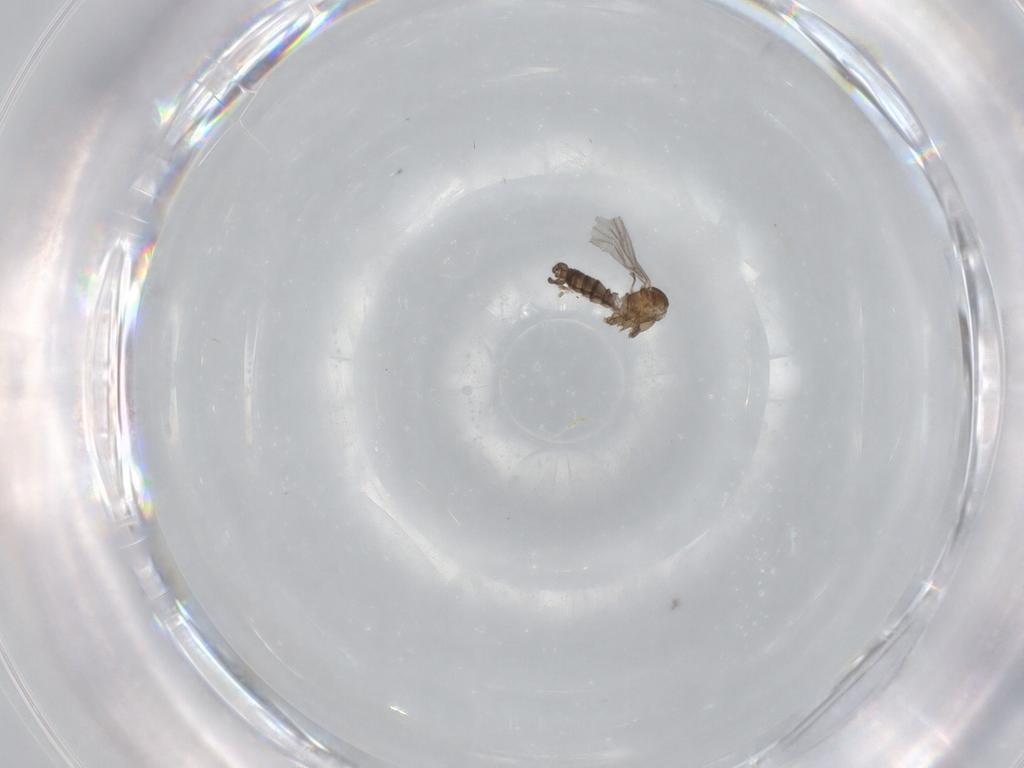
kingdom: Animalia
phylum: Arthropoda
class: Insecta
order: Diptera
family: Sciaridae
